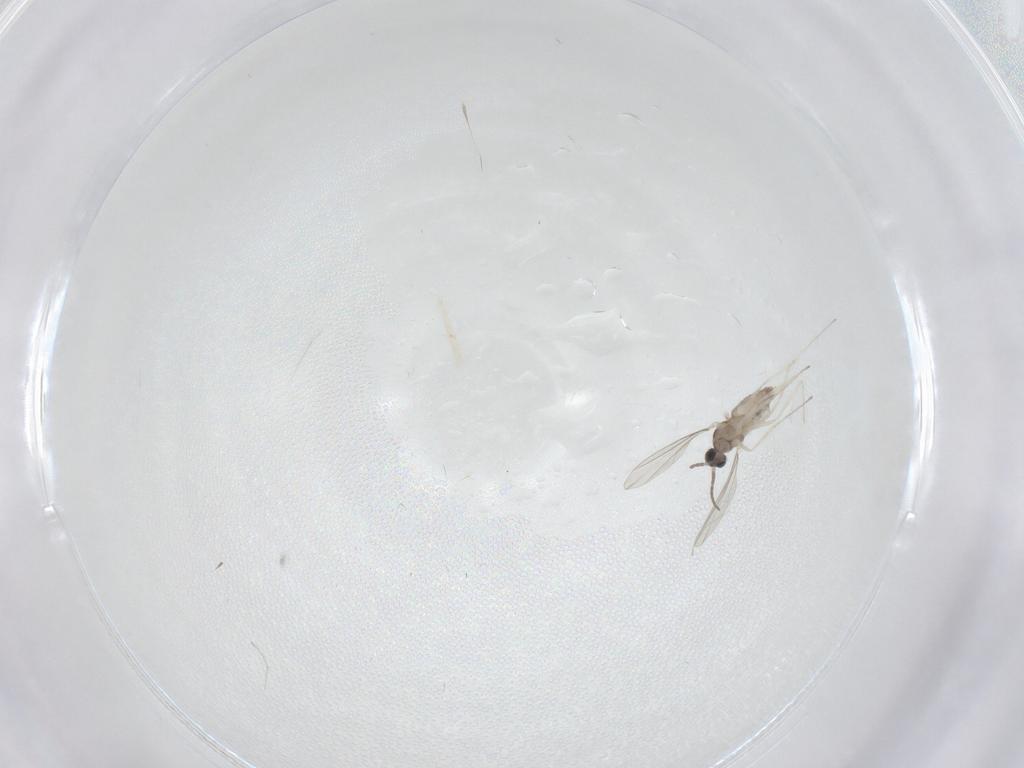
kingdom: Animalia
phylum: Arthropoda
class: Insecta
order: Diptera
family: Cecidomyiidae
